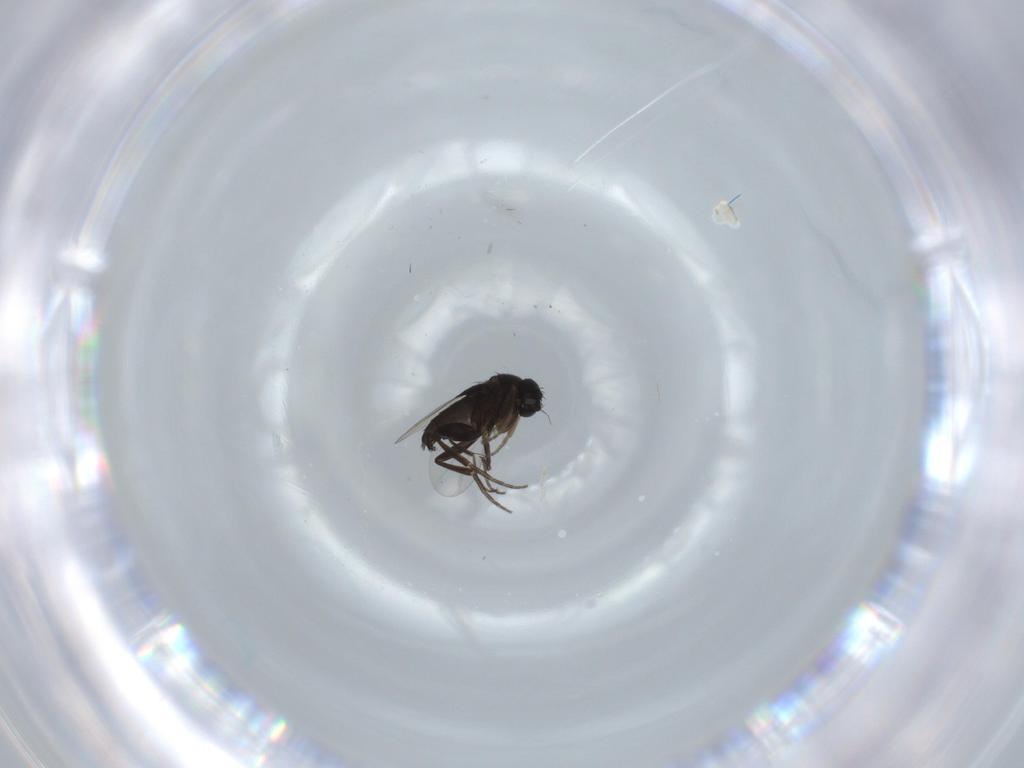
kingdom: Animalia
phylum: Arthropoda
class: Insecta
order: Diptera
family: Cecidomyiidae
